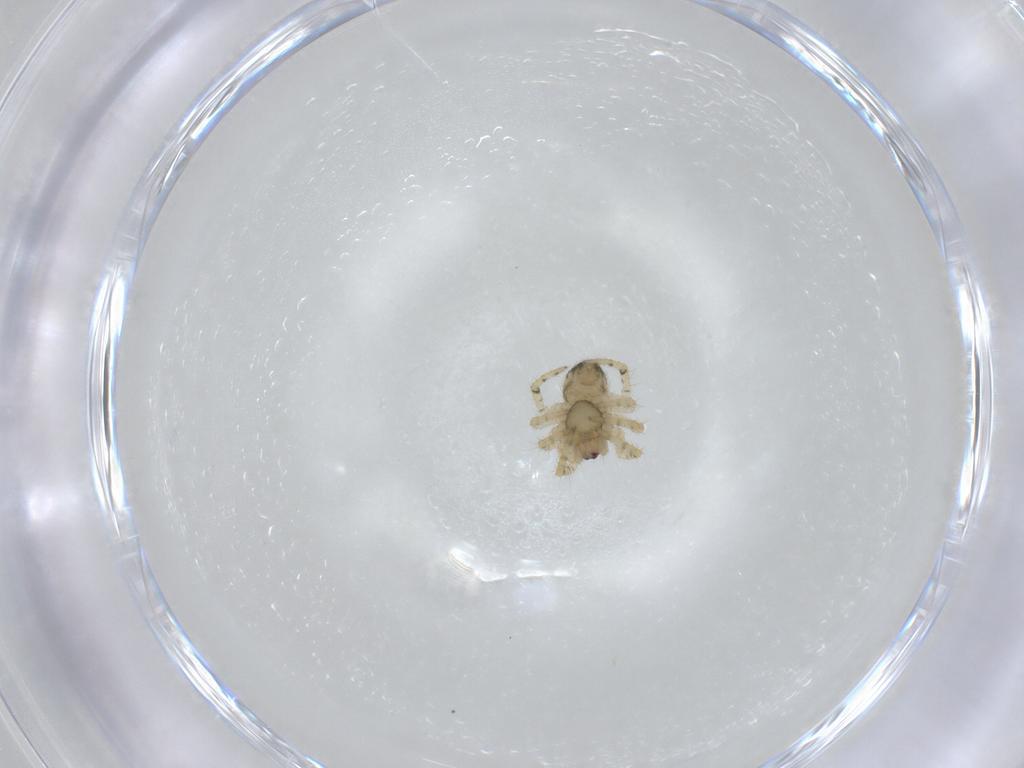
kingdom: Animalia
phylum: Arthropoda
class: Arachnida
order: Araneae
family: Theridiidae
